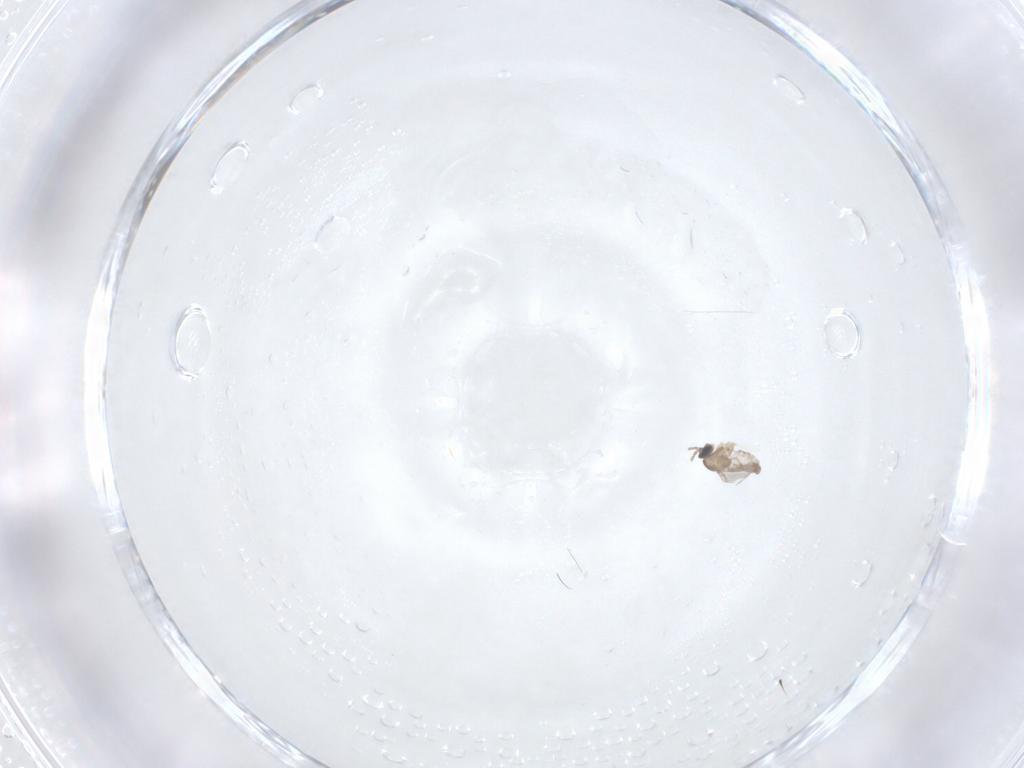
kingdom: Animalia
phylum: Arthropoda
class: Insecta
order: Diptera
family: Cecidomyiidae
